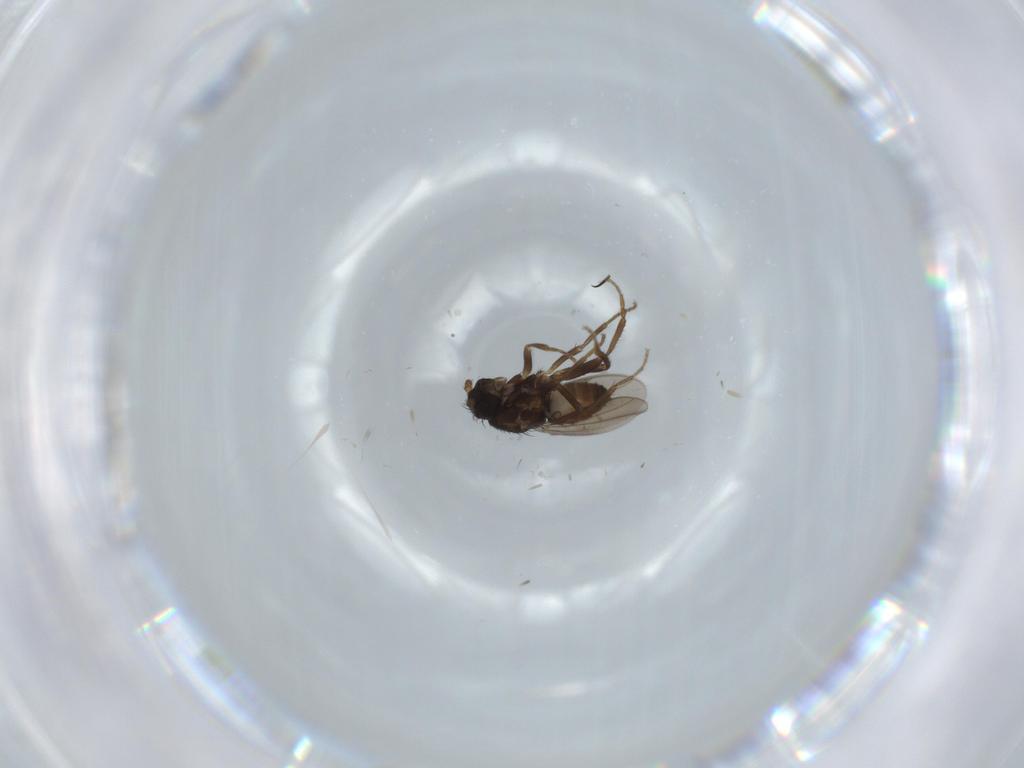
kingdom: Animalia
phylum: Arthropoda
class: Insecta
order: Diptera
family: Sphaeroceridae
